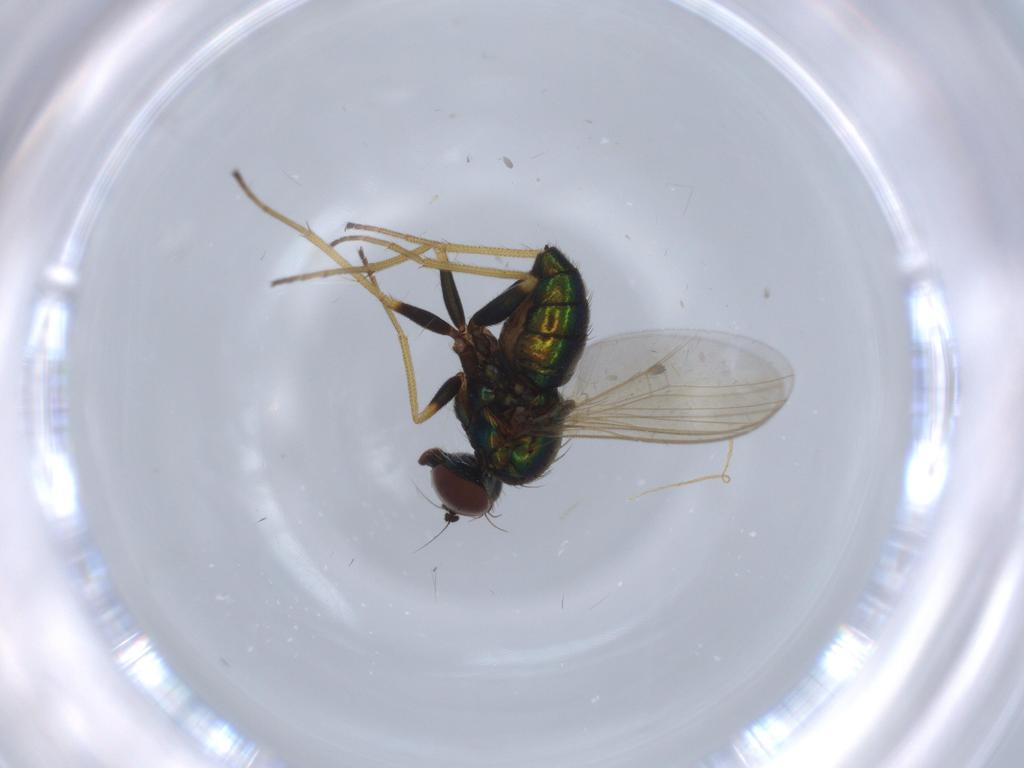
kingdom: Animalia
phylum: Arthropoda
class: Insecta
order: Diptera
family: Dolichopodidae
